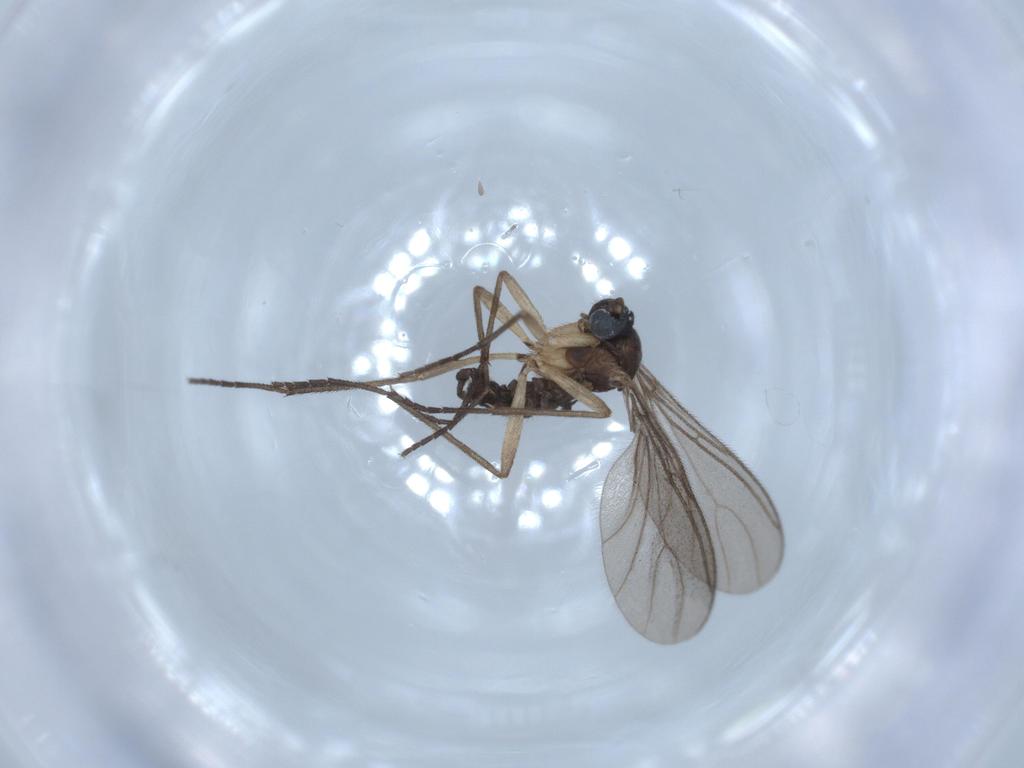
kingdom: Animalia
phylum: Arthropoda
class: Insecta
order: Diptera
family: Sciaridae
